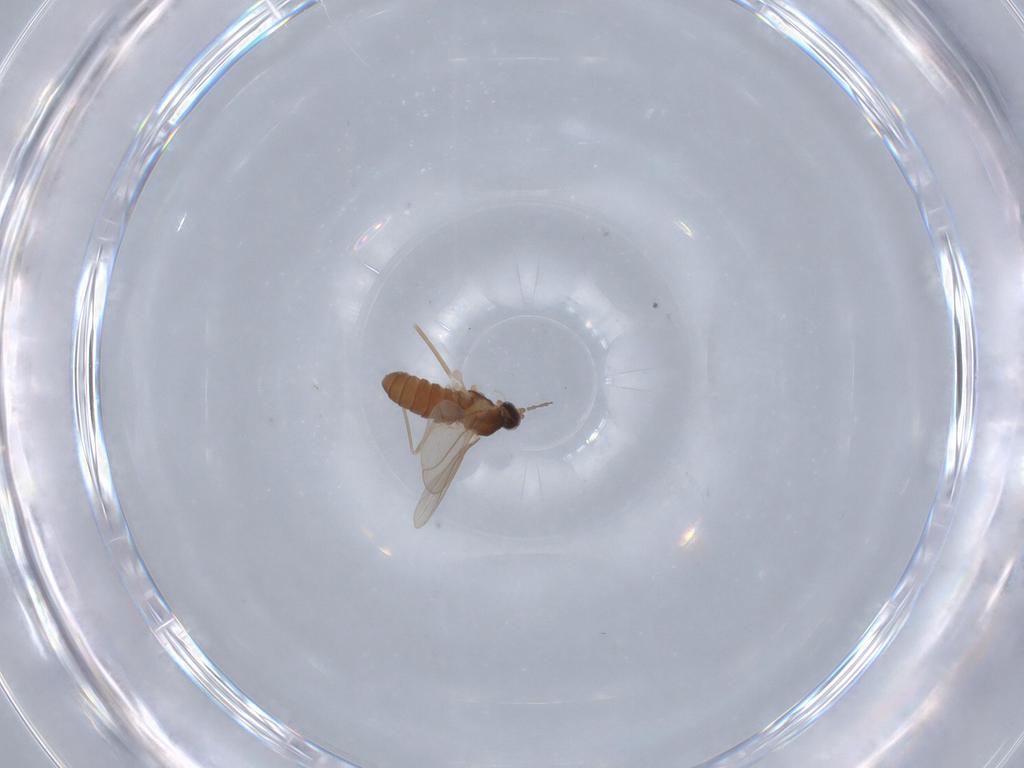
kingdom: Animalia
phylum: Arthropoda
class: Insecta
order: Diptera
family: Cecidomyiidae
